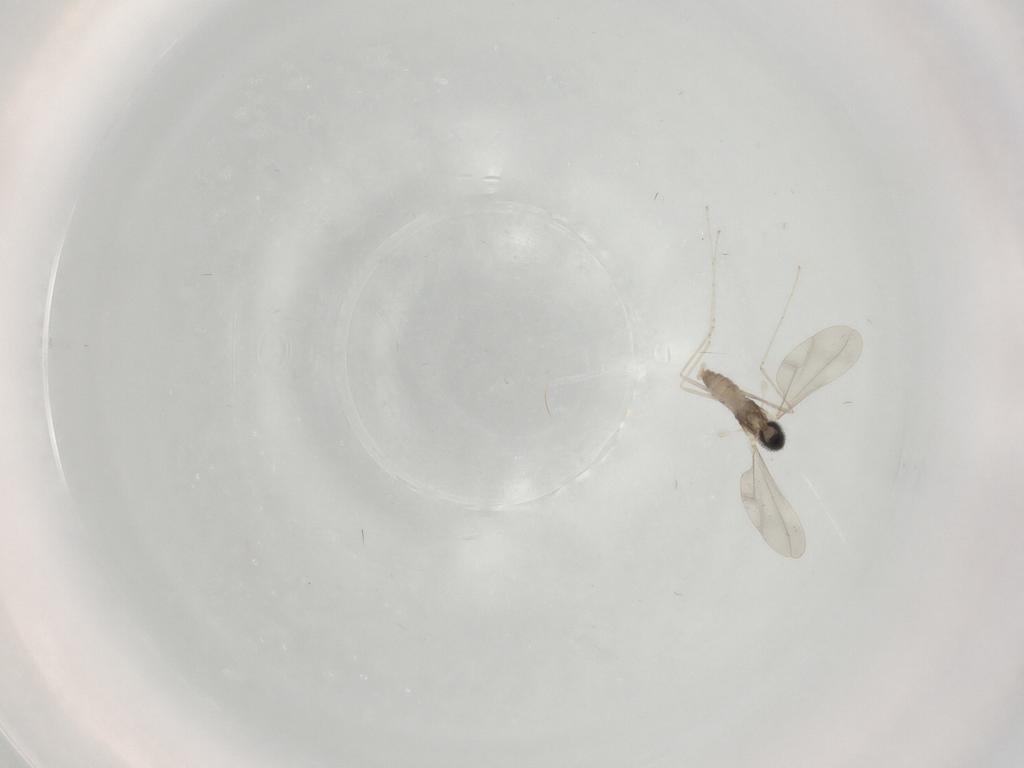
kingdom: Animalia
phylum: Arthropoda
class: Insecta
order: Diptera
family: Cecidomyiidae
